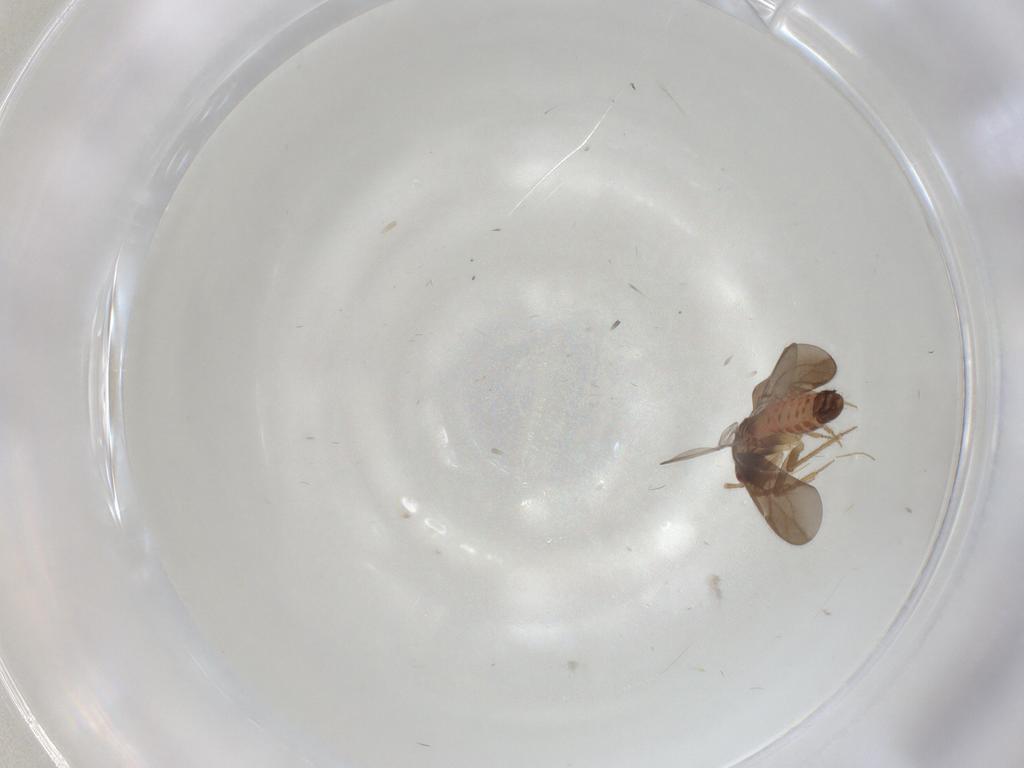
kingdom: Animalia
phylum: Arthropoda
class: Insecta
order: Hemiptera
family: Ceratocombidae
